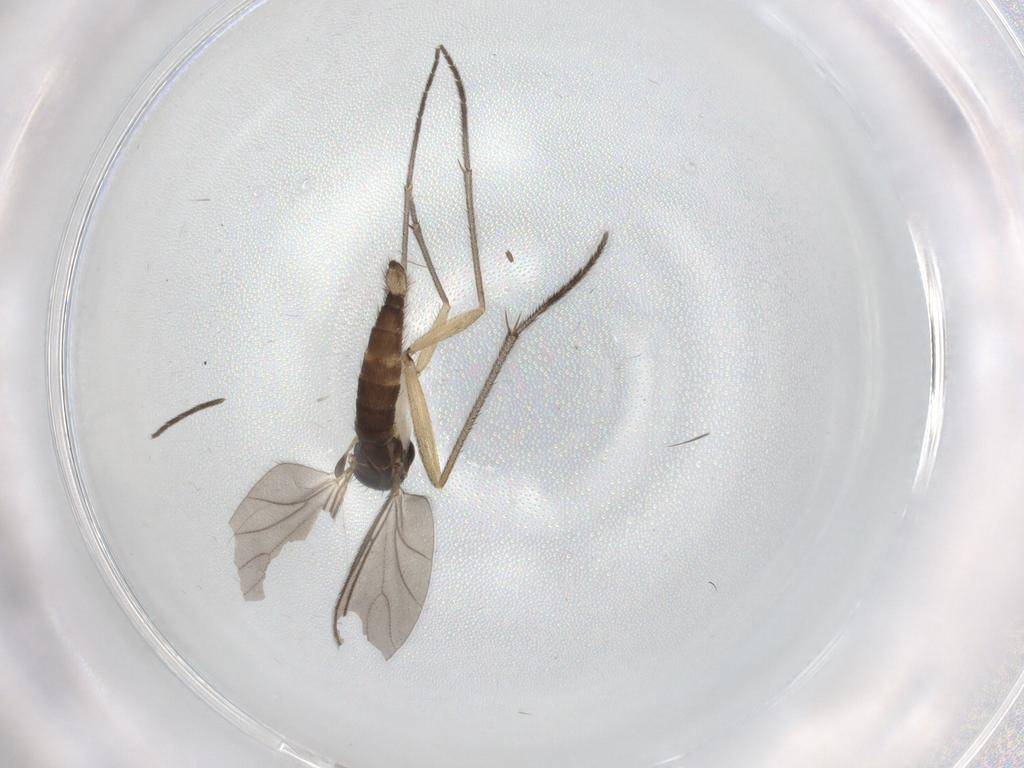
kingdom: Animalia
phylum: Arthropoda
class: Insecta
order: Diptera
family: Sciaridae
